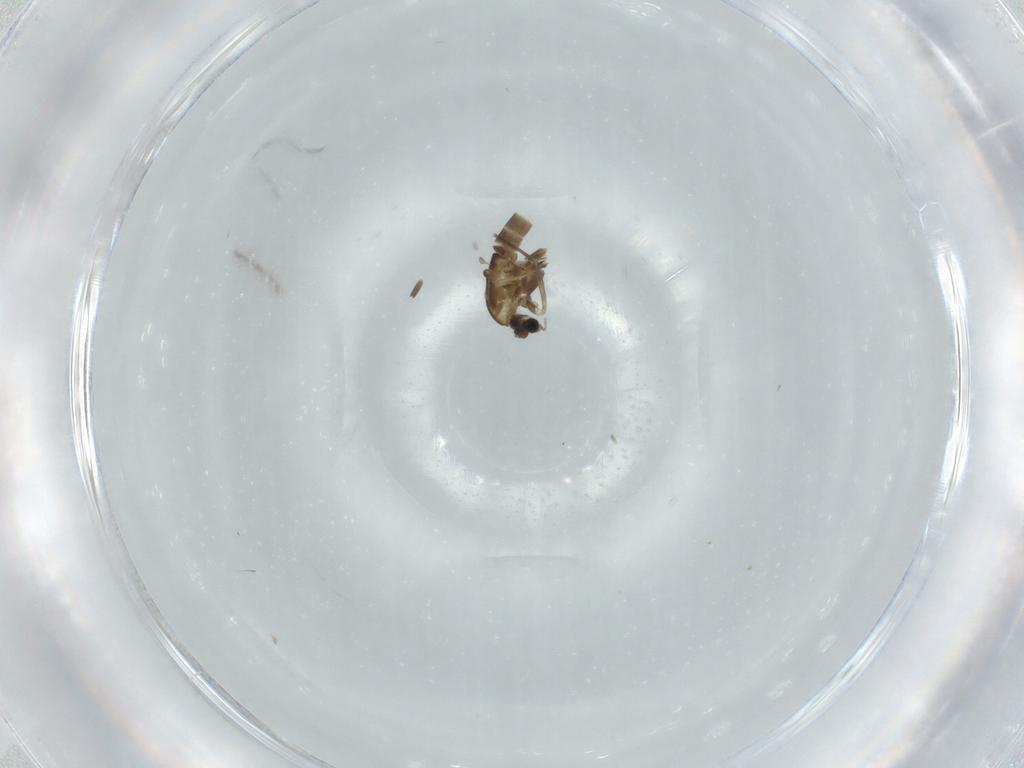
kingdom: Animalia
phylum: Arthropoda
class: Insecta
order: Diptera
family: Chironomidae
